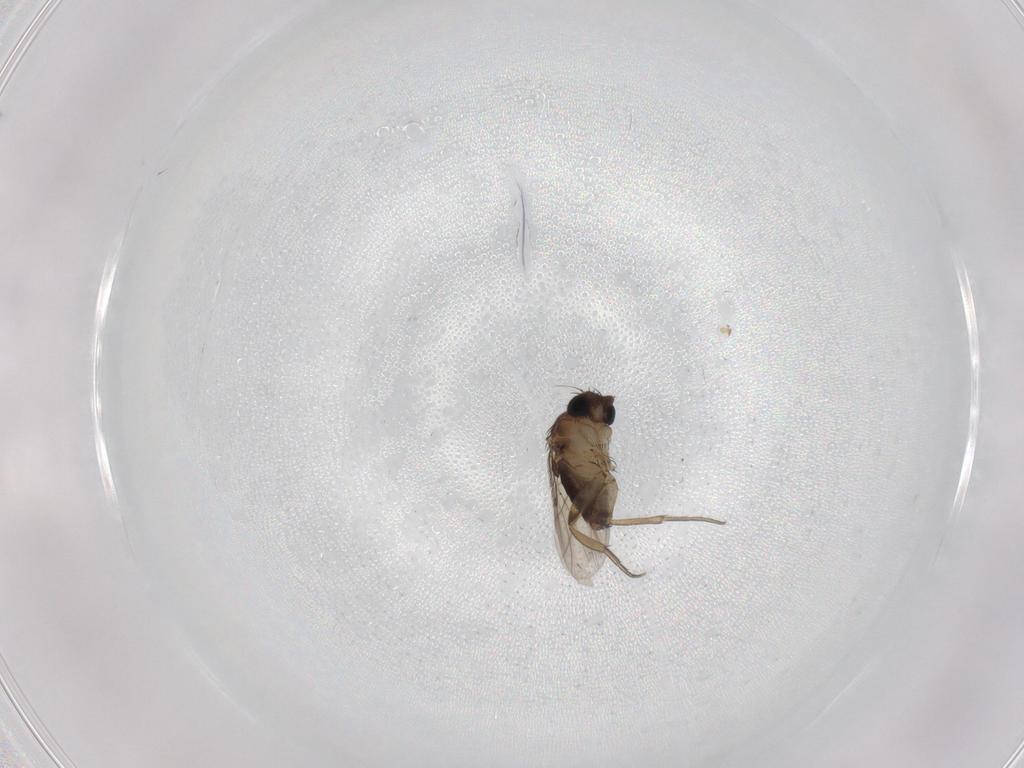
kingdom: Animalia
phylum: Arthropoda
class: Insecta
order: Diptera
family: Phoridae
